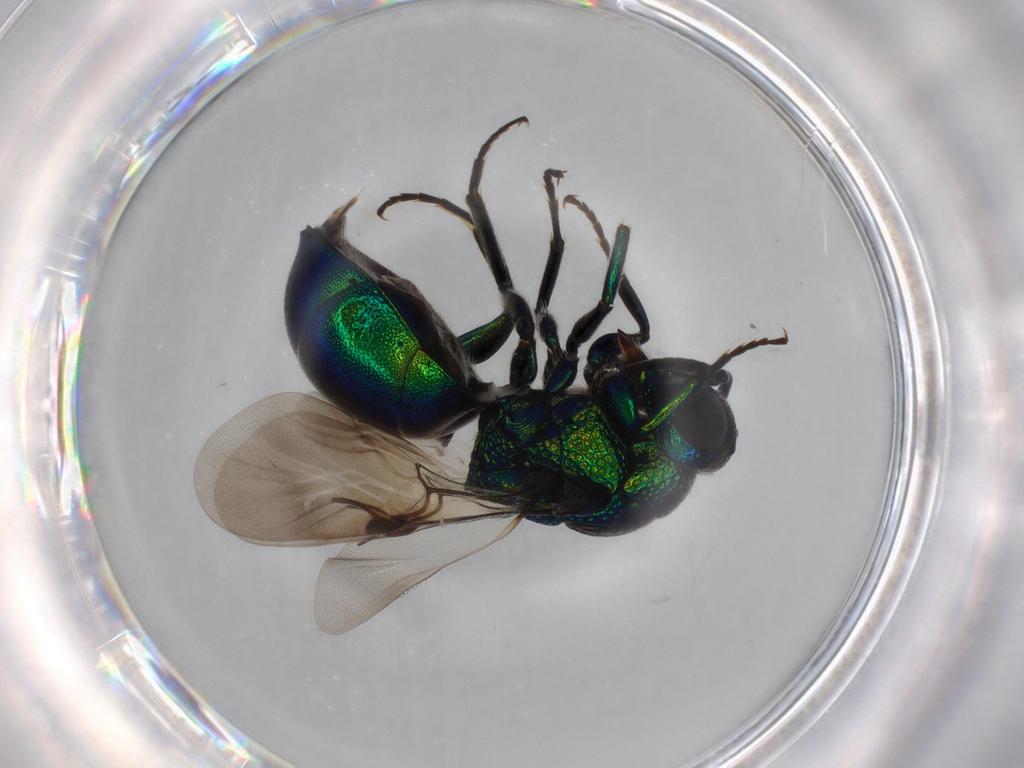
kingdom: Animalia
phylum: Arthropoda
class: Insecta
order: Hymenoptera
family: Chrysididae
